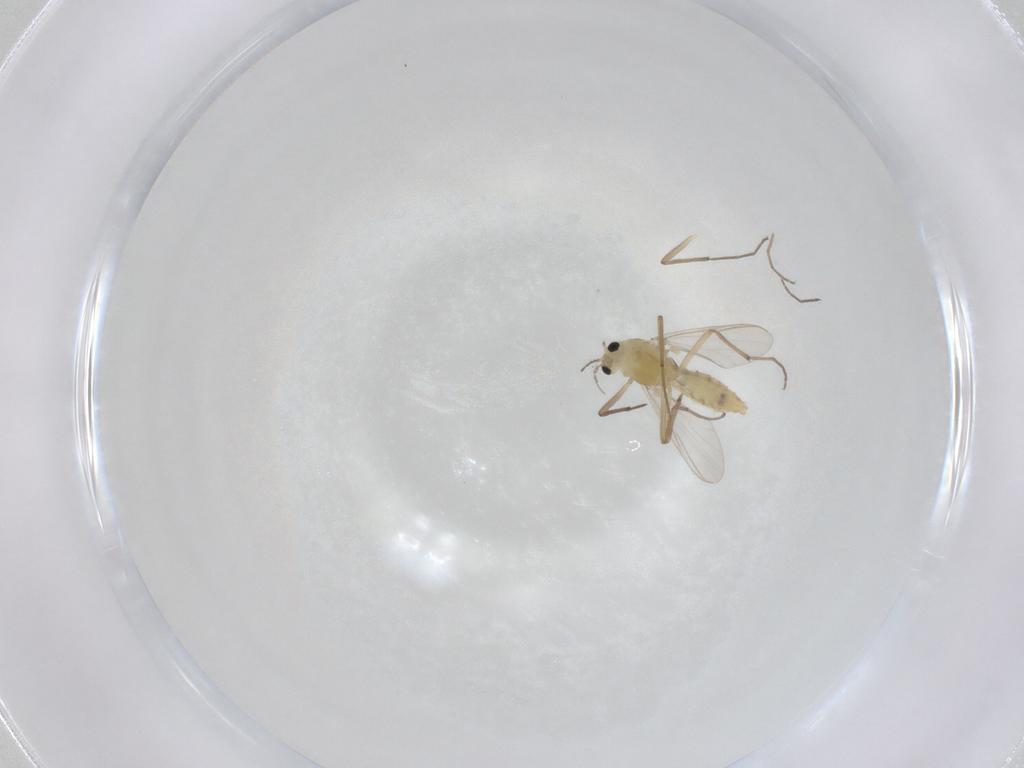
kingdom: Animalia
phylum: Arthropoda
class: Insecta
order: Diptera
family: Chironomidae
